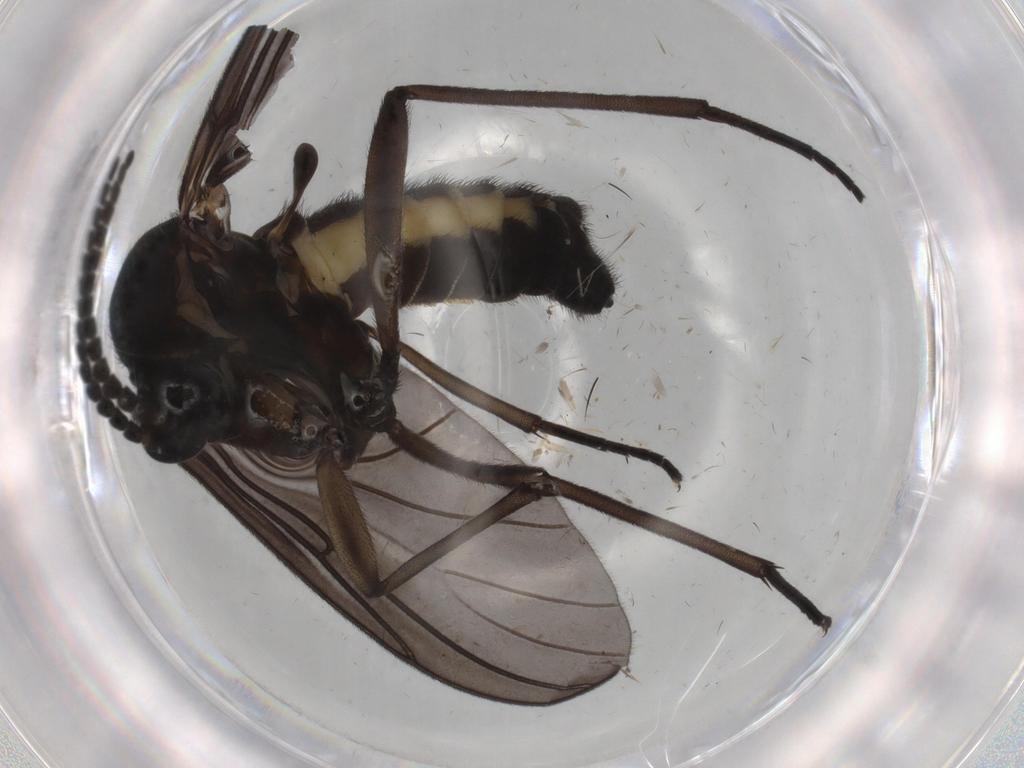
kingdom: Animalia
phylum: Arthropoda
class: Insecta
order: Diptera
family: Sciaridae
